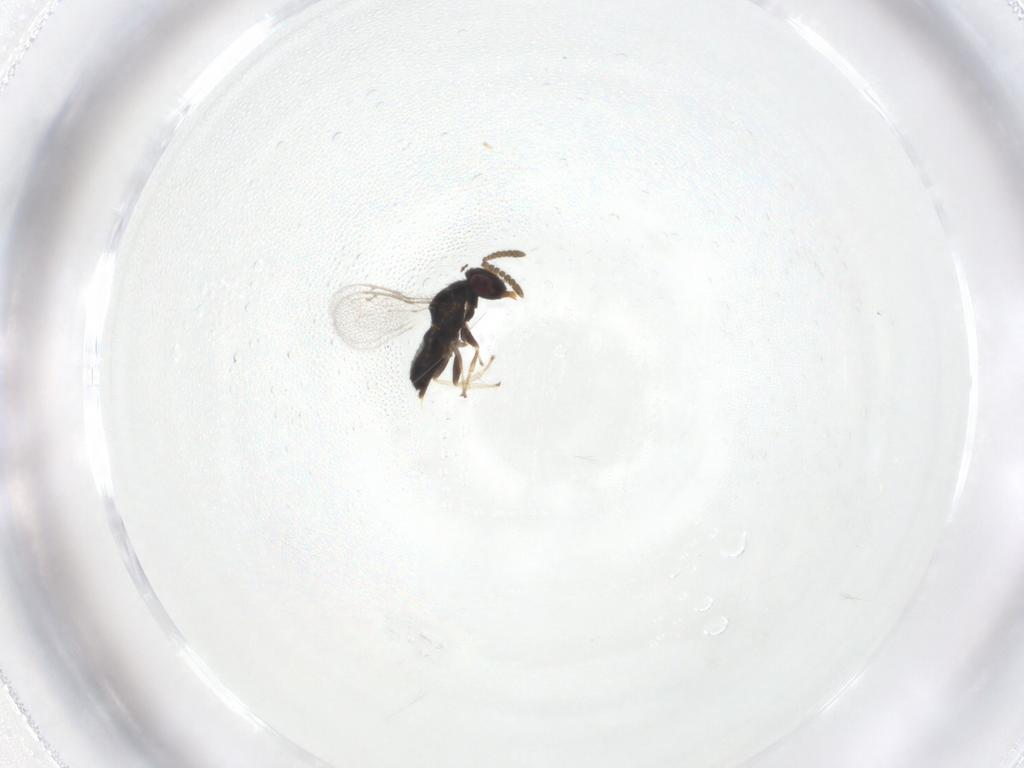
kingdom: Animalia
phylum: Arthropoda
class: Insecta
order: Hymenoptera
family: Pirenidae
